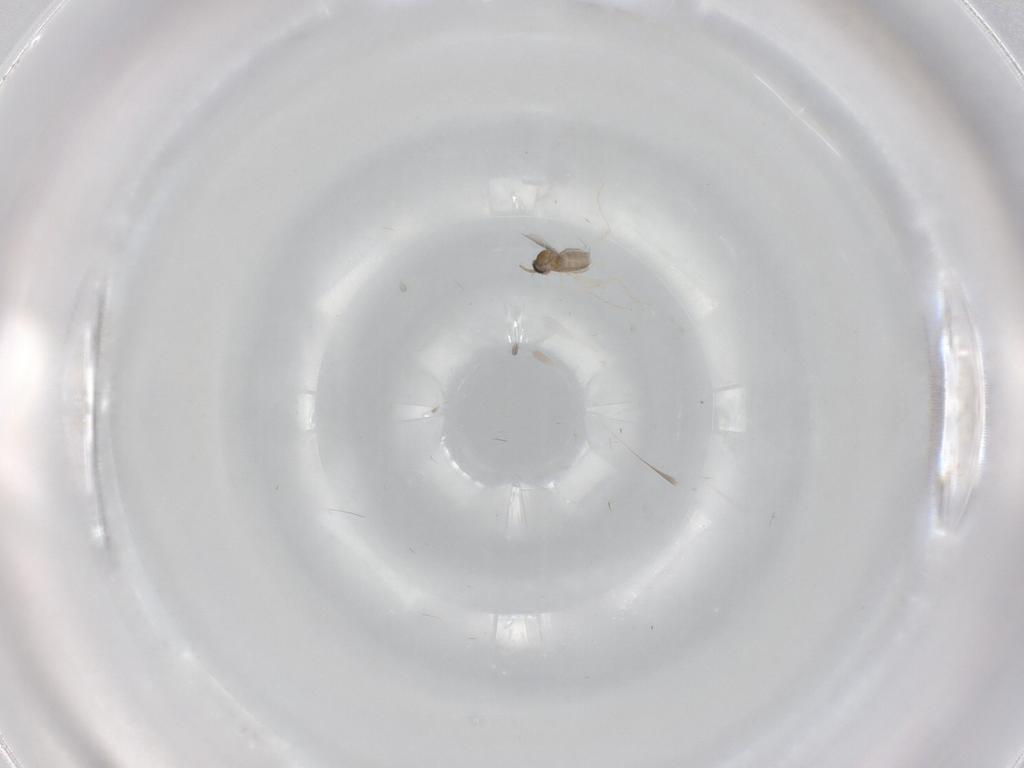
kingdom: Animalia
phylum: Arthropoda
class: Insecta
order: Diptera
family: Chironomidae
